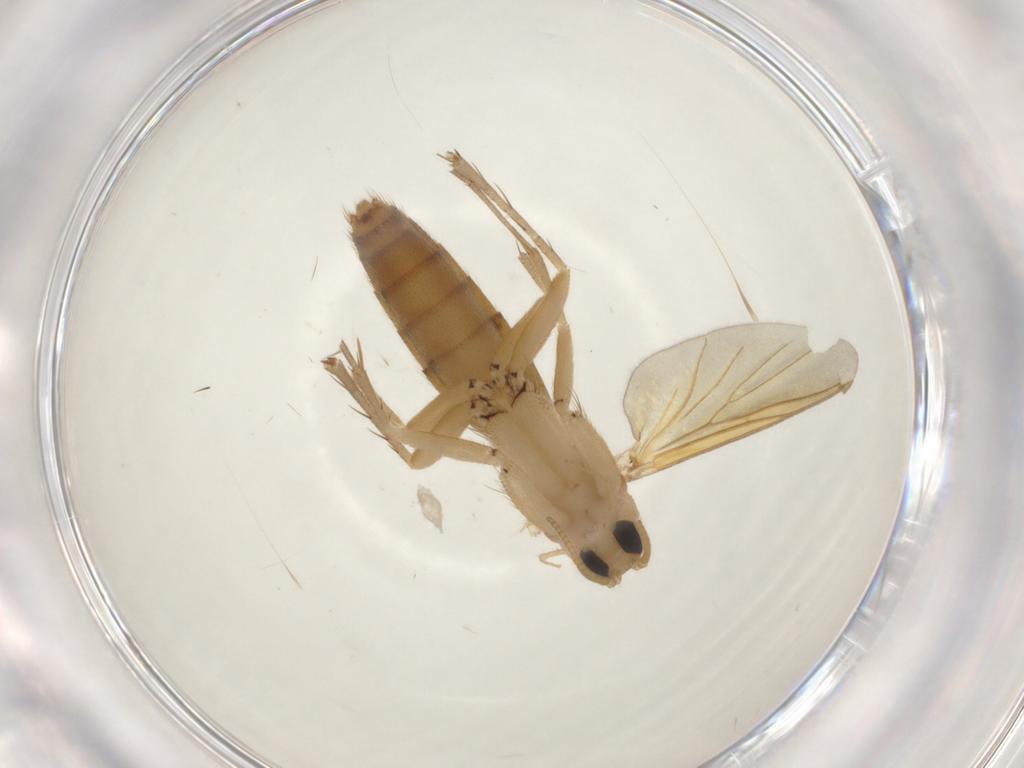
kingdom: Animalia
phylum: Arthropoda
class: Insecta
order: Diptera
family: Mycetophilidae
